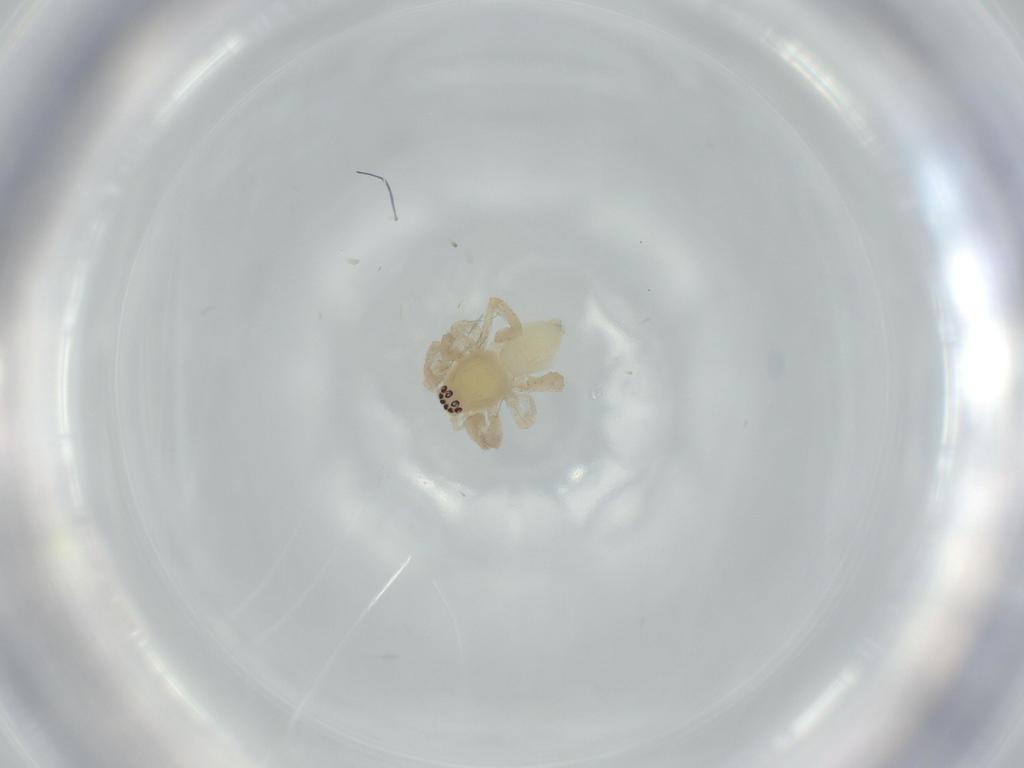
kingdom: Animalia
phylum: Arthropoda
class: Arachnida
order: Araneae
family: Anyphaenidae
